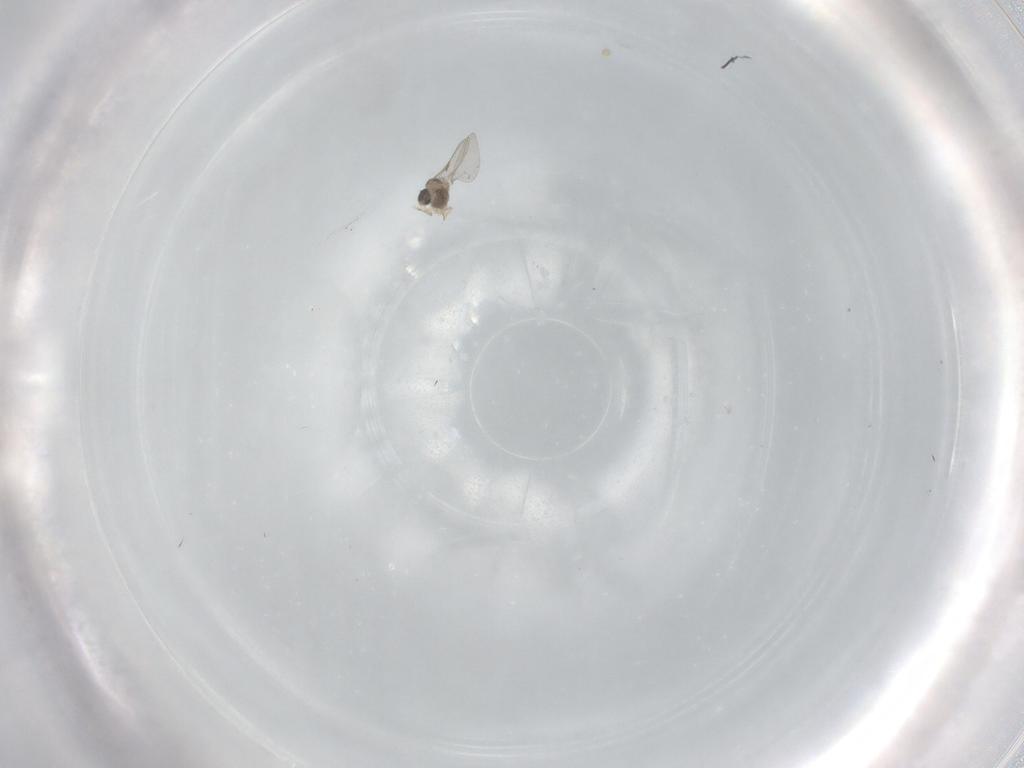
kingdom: Animalia
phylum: Arthropoda
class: Insecta
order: Diptera
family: Cecidomyiidae
